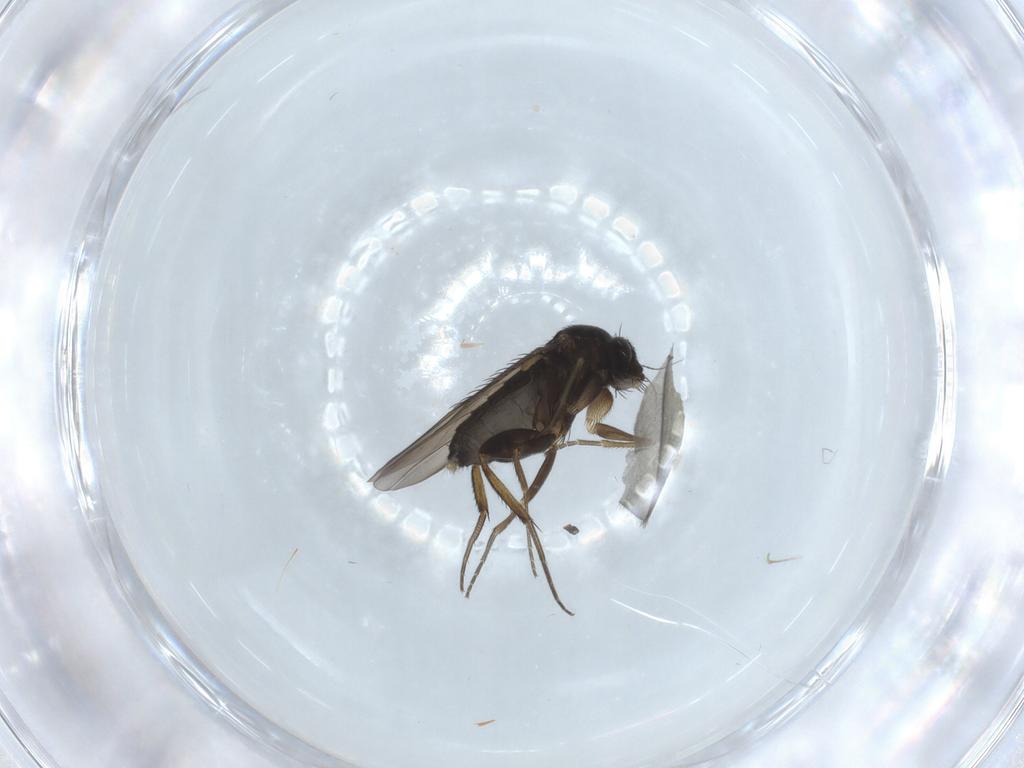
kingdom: Animalia
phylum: Arthropoda
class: Insecta
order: Diptera
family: Phoridae
